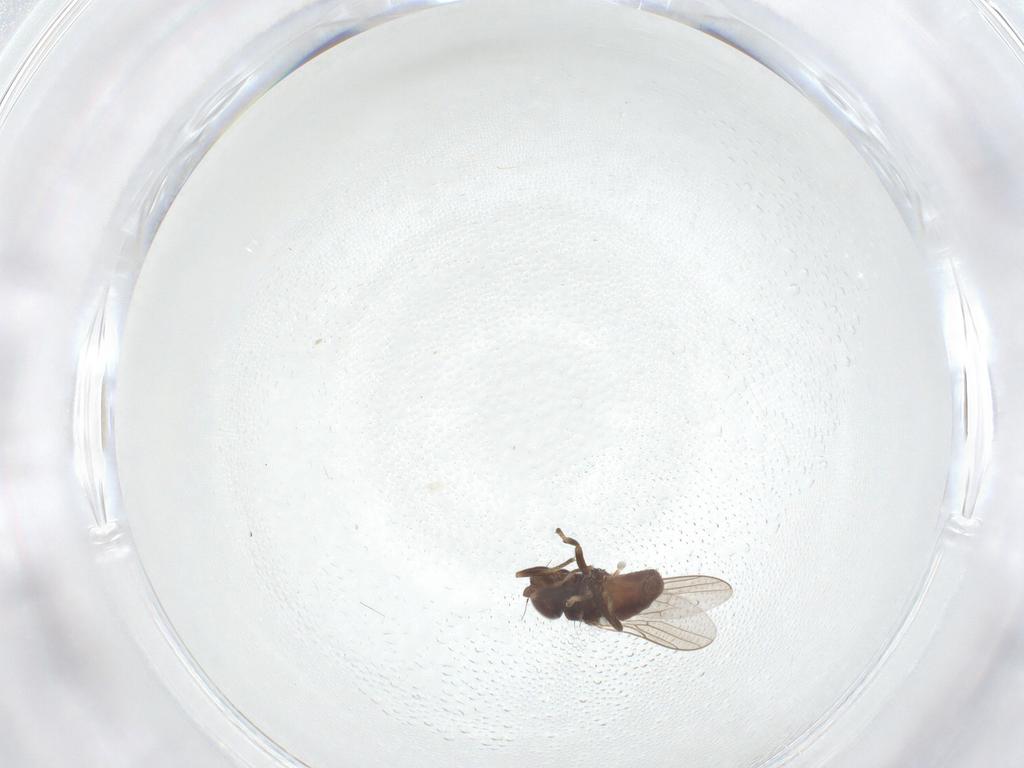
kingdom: Animalia
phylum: Arthropoda
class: Insecta
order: Diptera
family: Chloropidae
